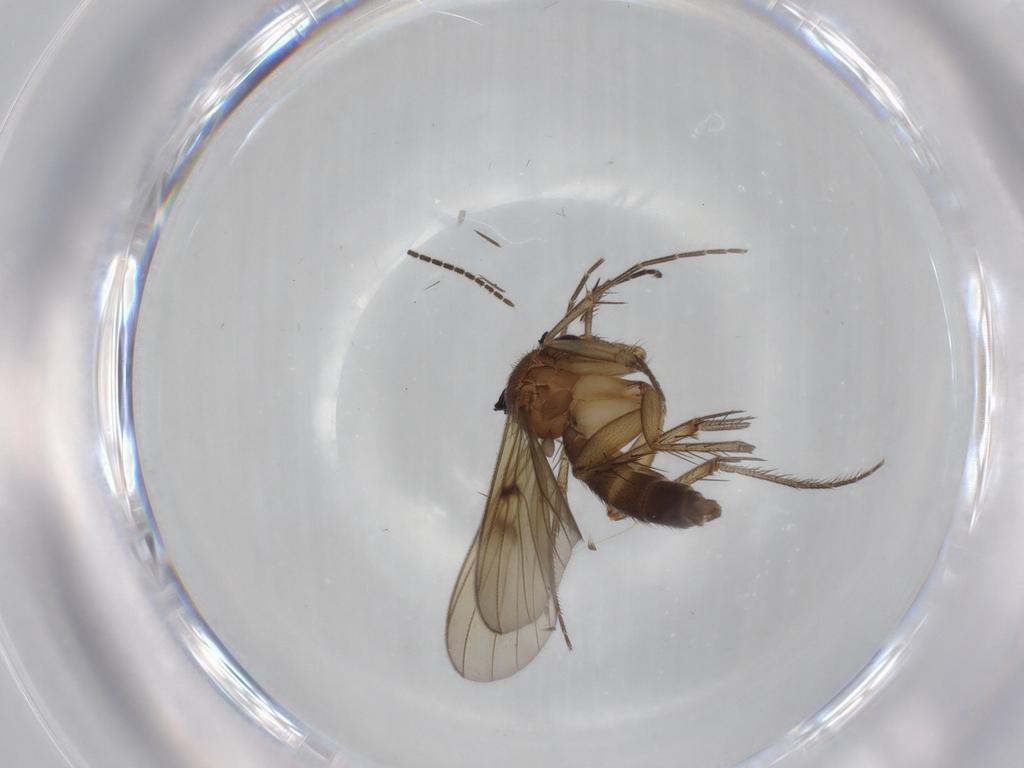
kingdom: Animalia
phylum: Arthropoda
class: Insecta
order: Diptera
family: Sciaridae
